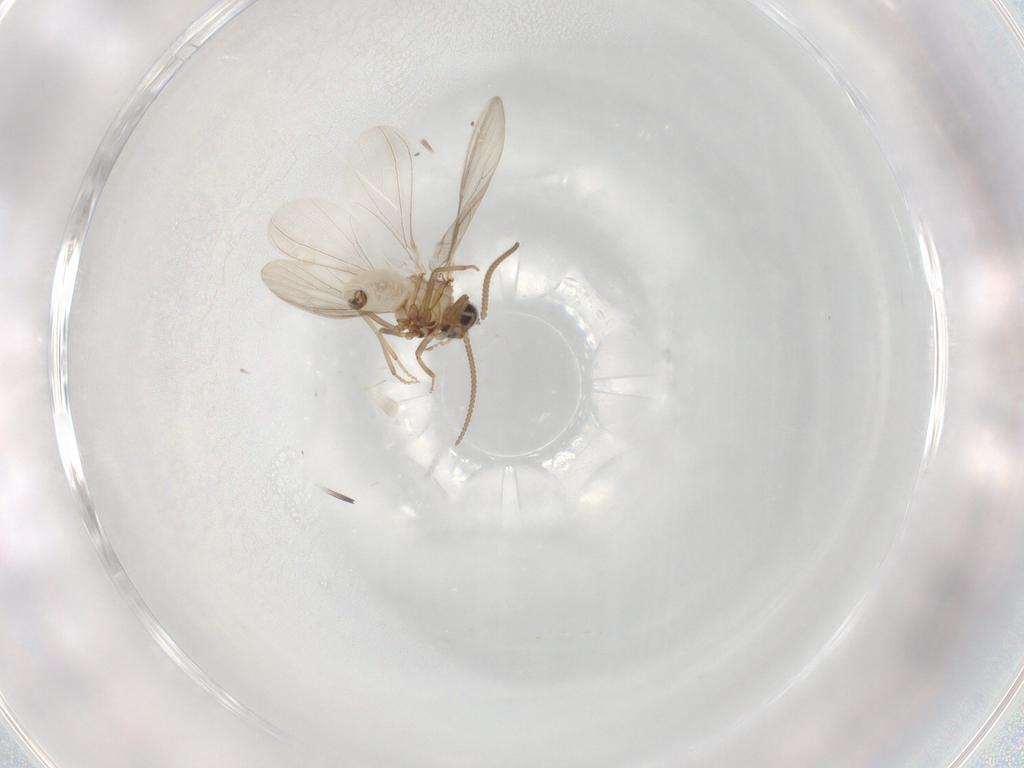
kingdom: Animalia
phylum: Arthropoda
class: Insecta
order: Neuroptera
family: Coniopterygidae
